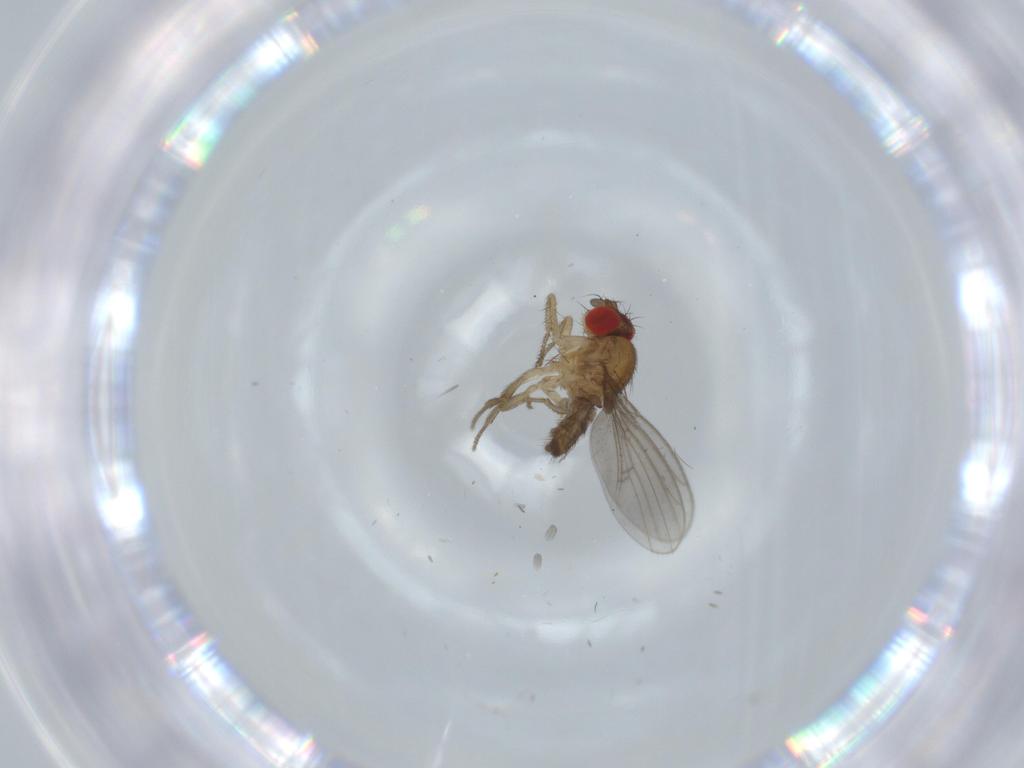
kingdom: Animalia
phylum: Arthropoda
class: Insecta
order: Diptera
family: Drosophilidae
